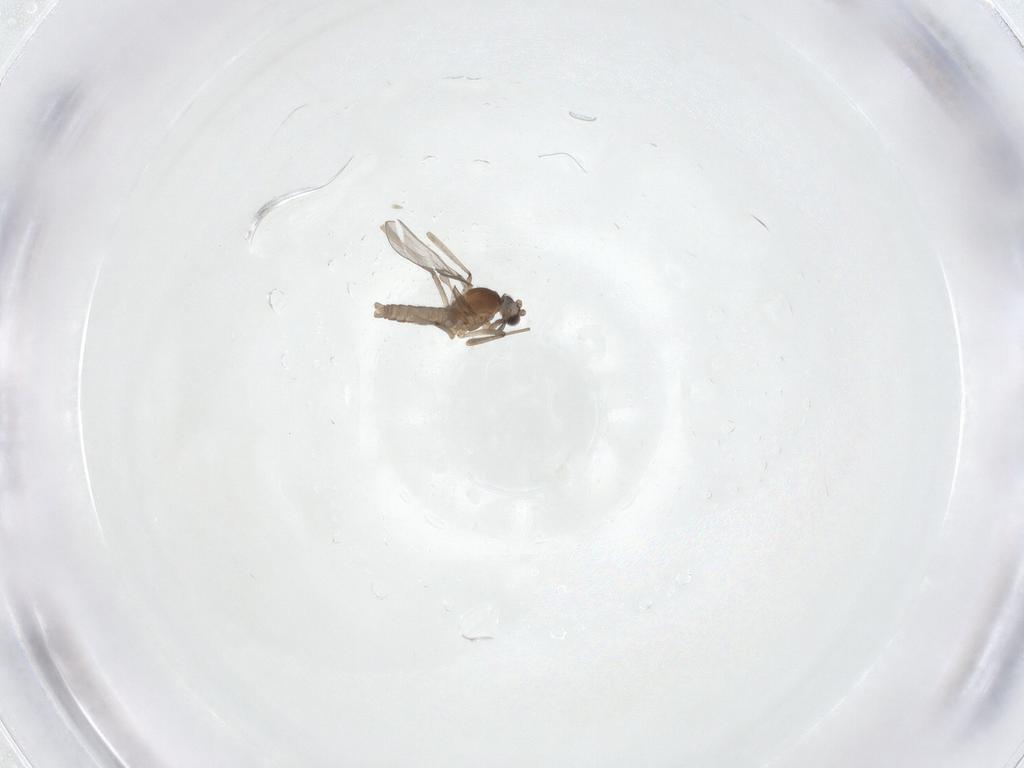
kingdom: Animalia
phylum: Arthropoda
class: Insecta
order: Diptera
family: Cecidomyiidae
